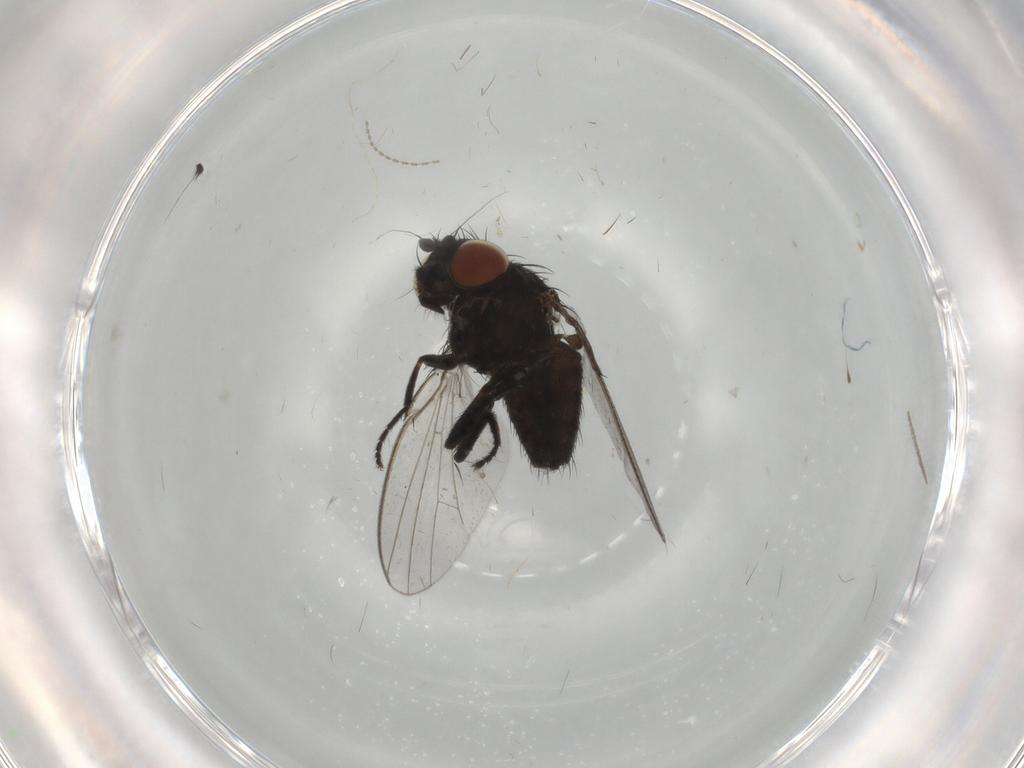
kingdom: Animalia
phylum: Arthropoda
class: Insecta
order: Diptera
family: Milichiidae
